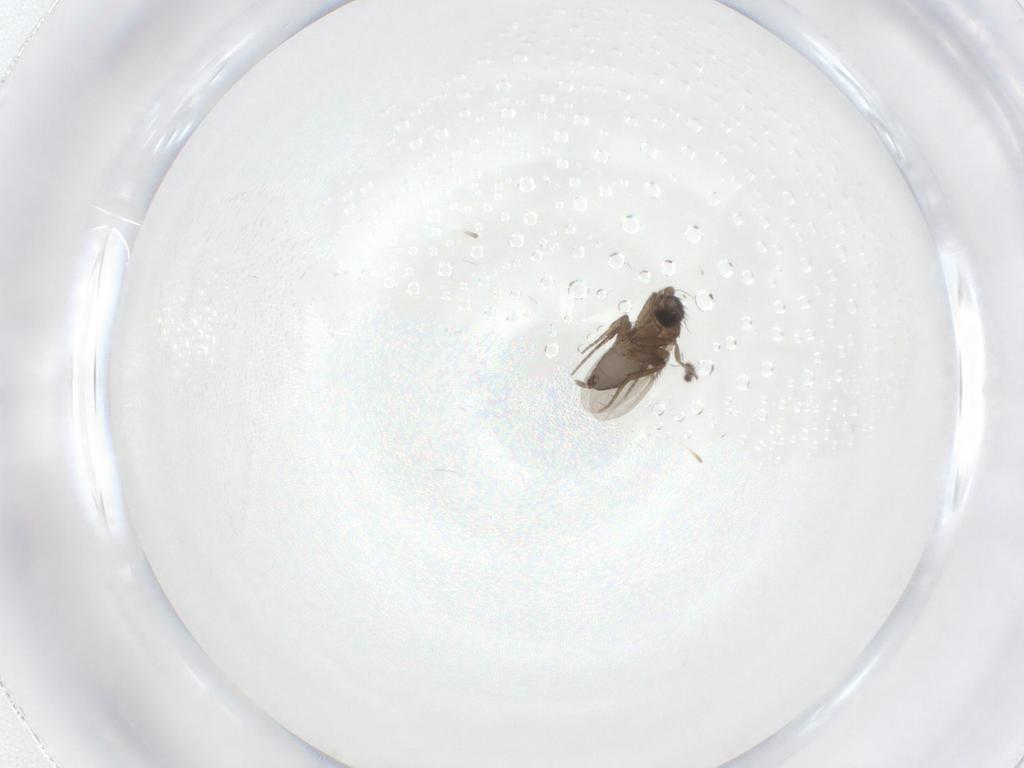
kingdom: Animalia
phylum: Arthropoda
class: Insecta
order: Diptera
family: Phoridae
